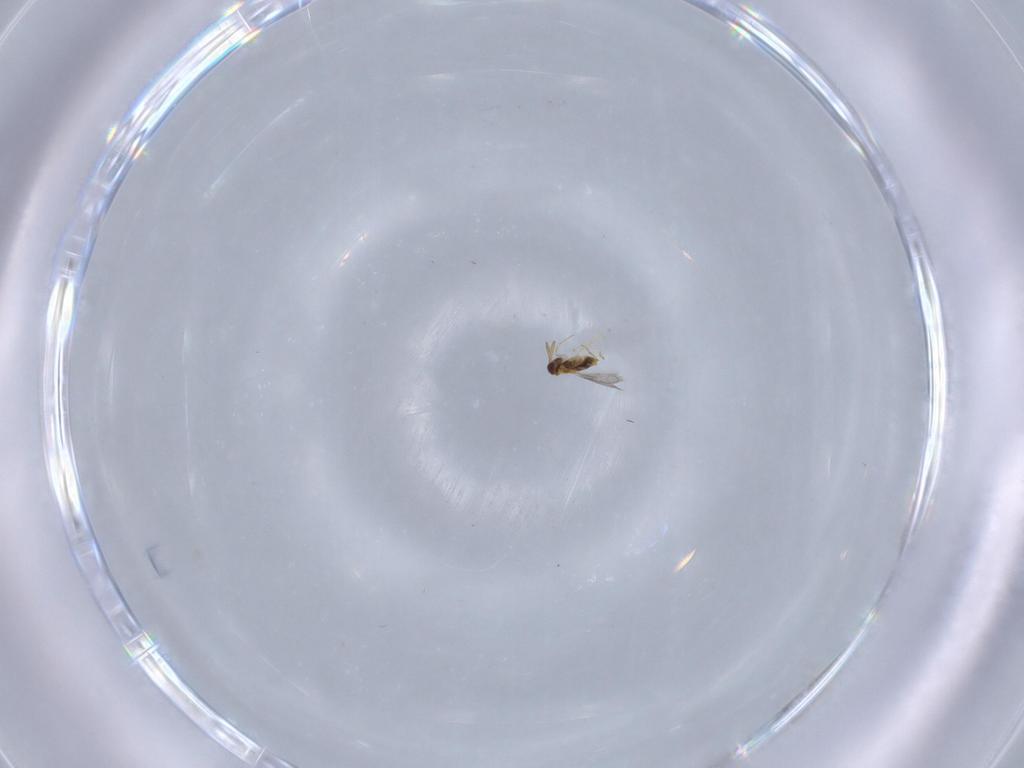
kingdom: Animalia
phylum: Arthropoda
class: Insecta
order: Hymenoptera
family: Aphelinidae
